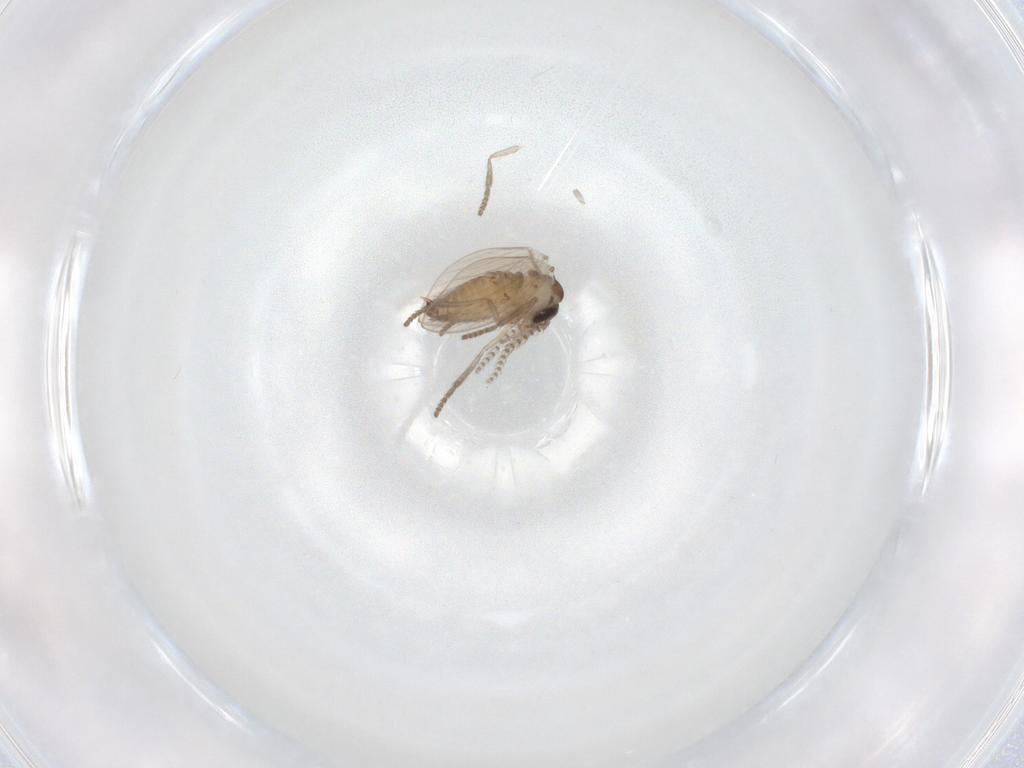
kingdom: Animalia
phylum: Arthropoda
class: Insecta
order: Diptera
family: Psychodidae
